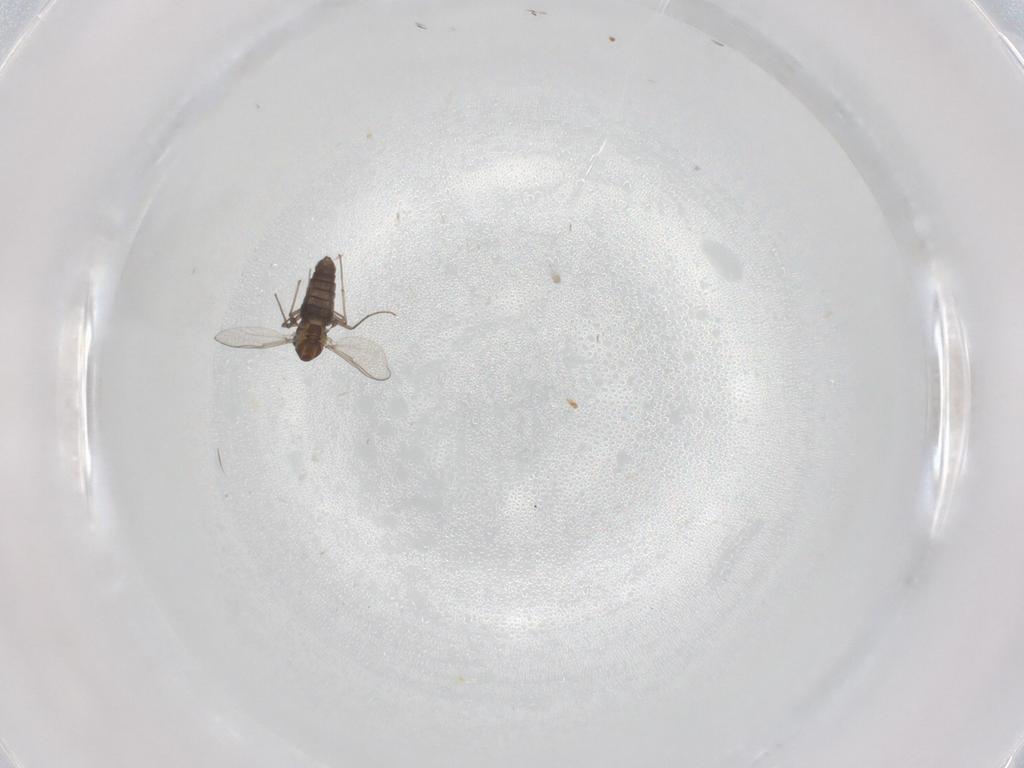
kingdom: Animalia
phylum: Arthropoda
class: Insecta
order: Diptera
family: Chironomidae
